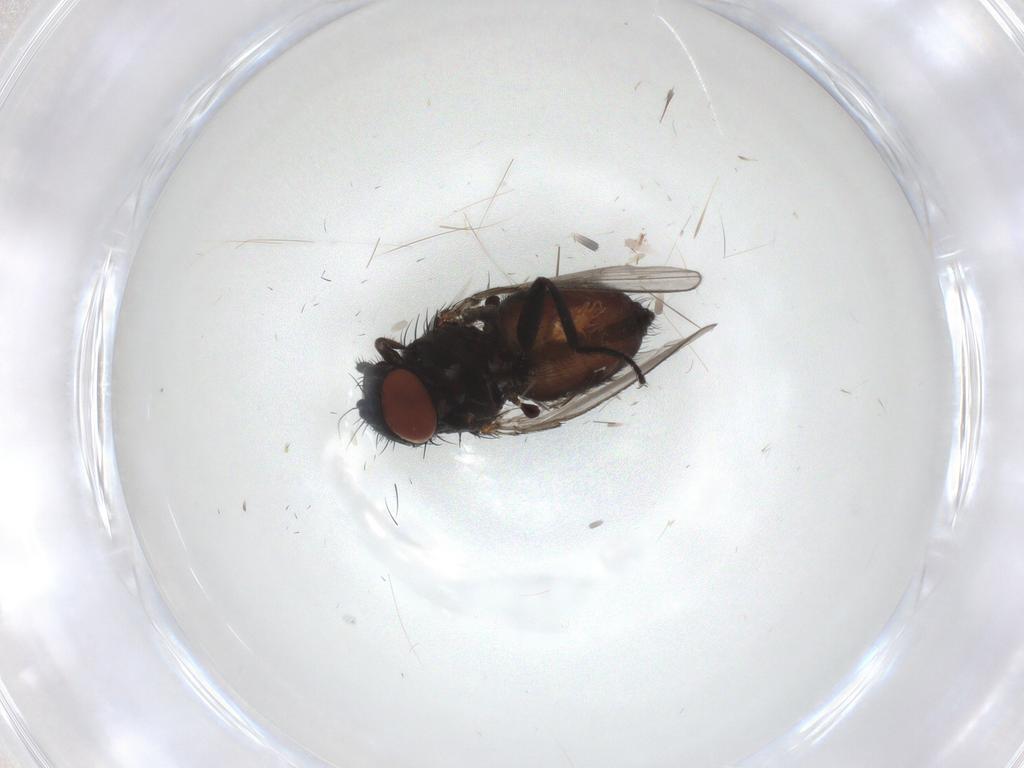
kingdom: Animalia
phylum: Arthropoda
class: Insecta
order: Diptera
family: Milichiidae
